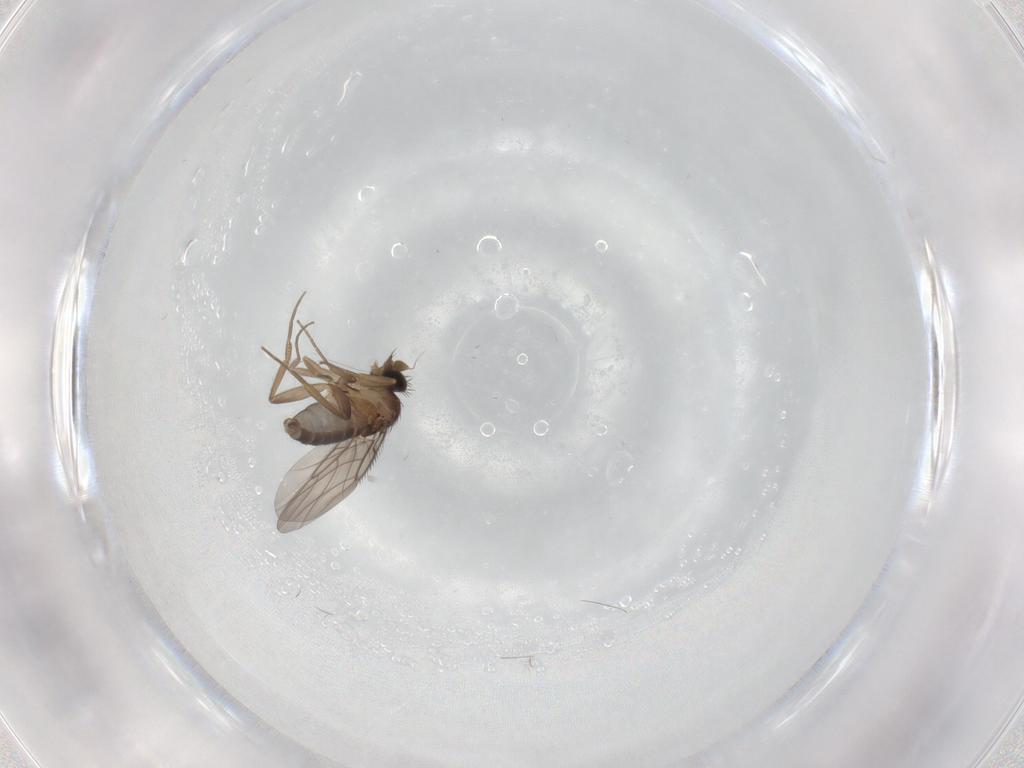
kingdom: Animalia
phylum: Arthropoda
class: Insecta
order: Diptera
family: Phoridae
